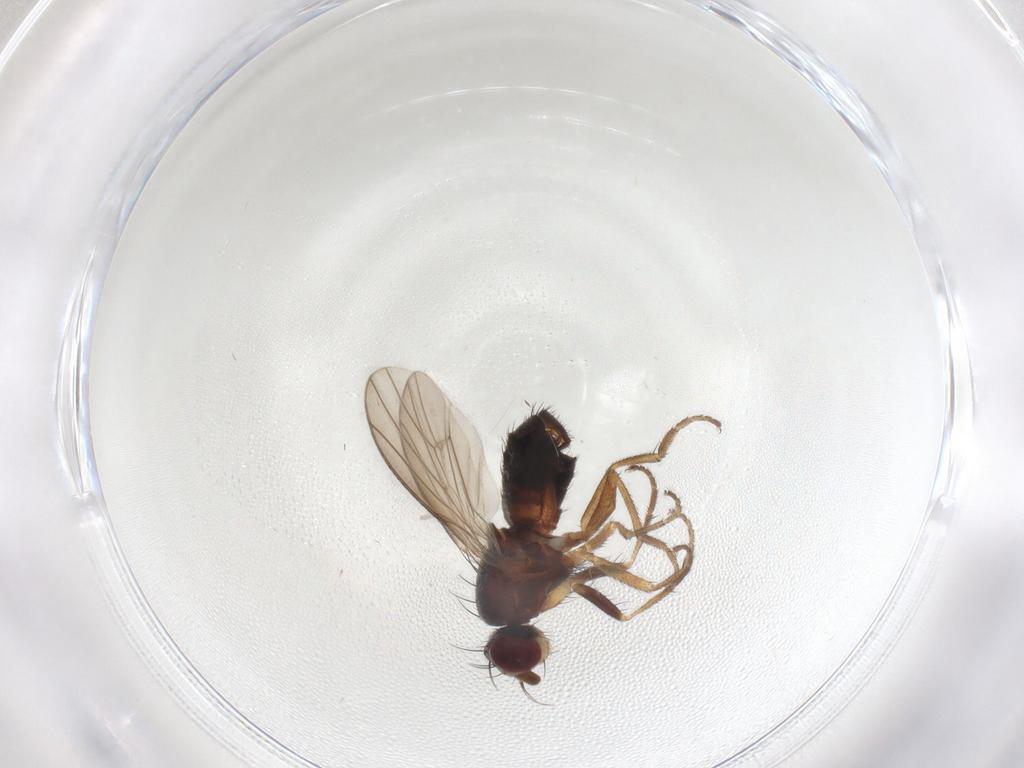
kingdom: Animalia
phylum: Arthropoda
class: Insecta
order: Diptera
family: Heleomyzidae
